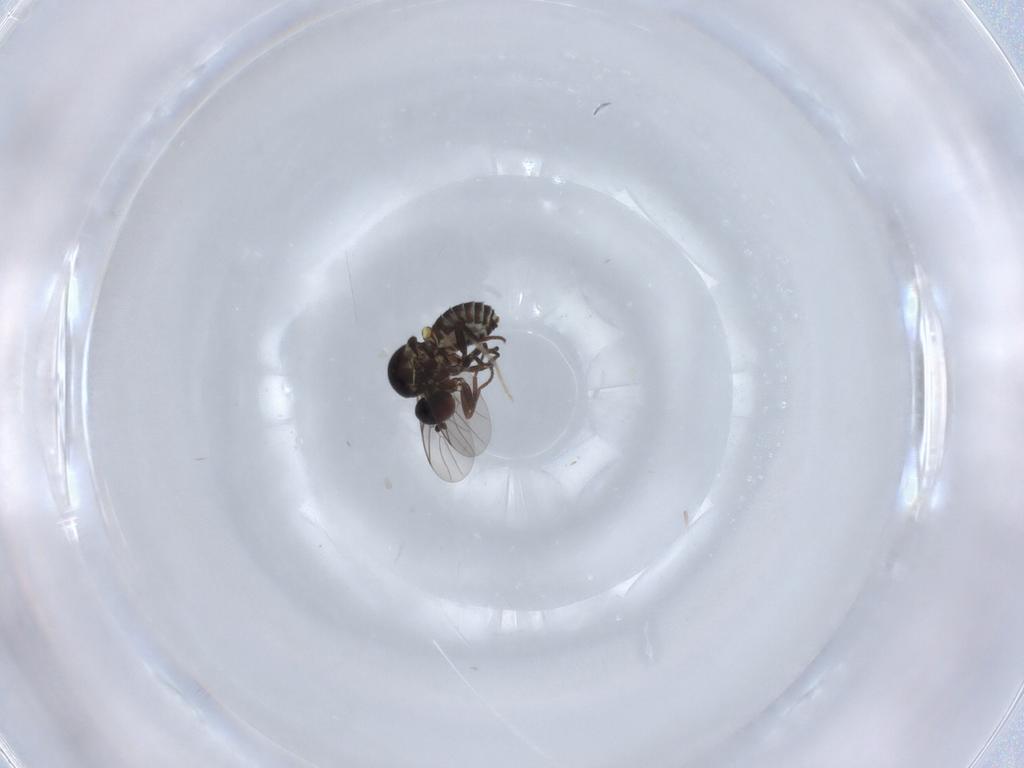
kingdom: Animalia
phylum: Arthropoda
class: Insecta
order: Diptera
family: Mythicomyiidae
